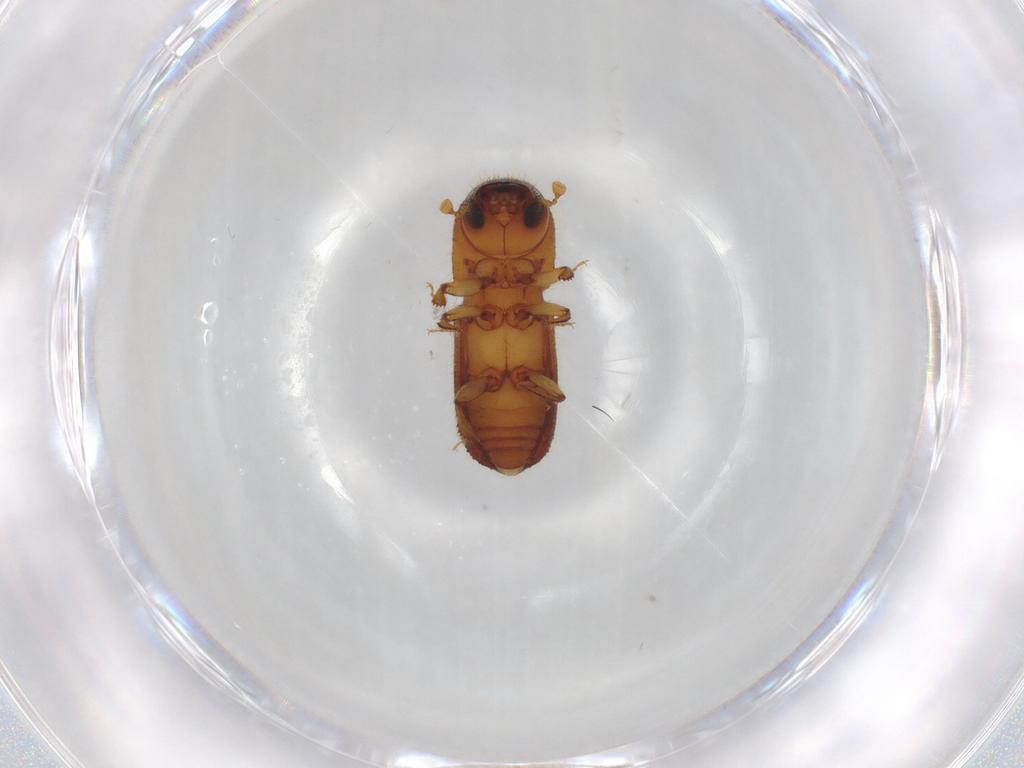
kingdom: Animalia
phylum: Arthropoda
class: Insecta
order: Coleoptera
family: Curculionidae
